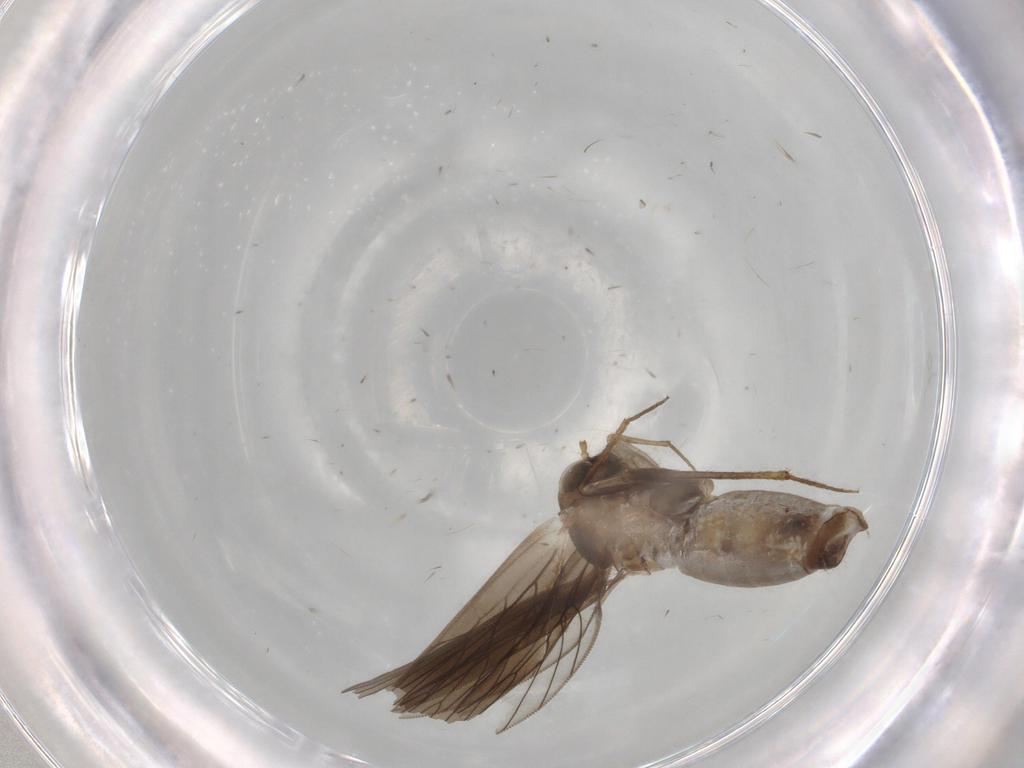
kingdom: Animalia
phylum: Arthropoda
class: Insecta
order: Psocodea
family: Lepidopsocidae
